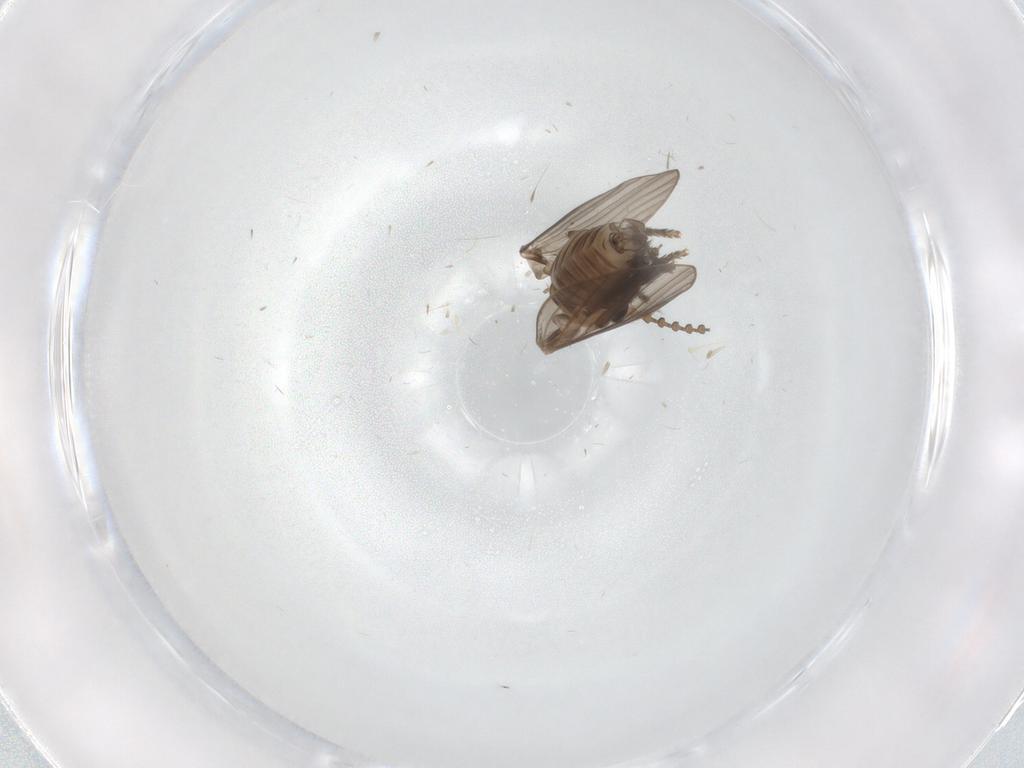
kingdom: Animalia
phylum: Arthropoda
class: Insecta
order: Diptera
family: Psychodidae
